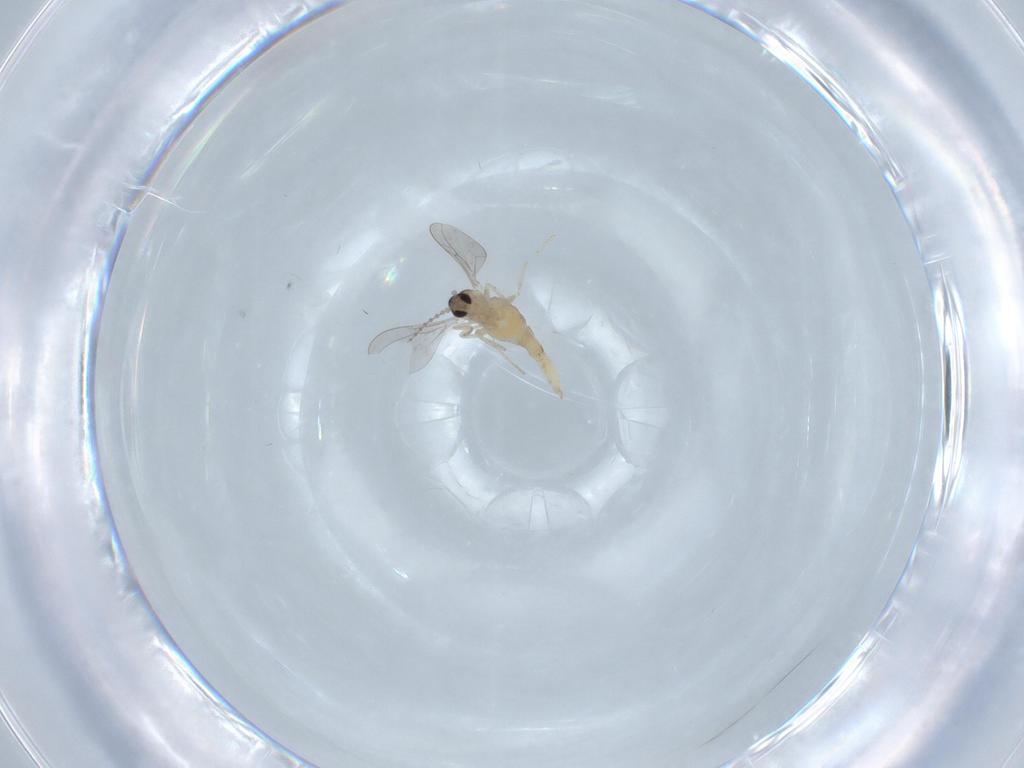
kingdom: Animalia
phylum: Arthropoda
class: Insecta
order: Diptera
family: Cecidomyiidae
